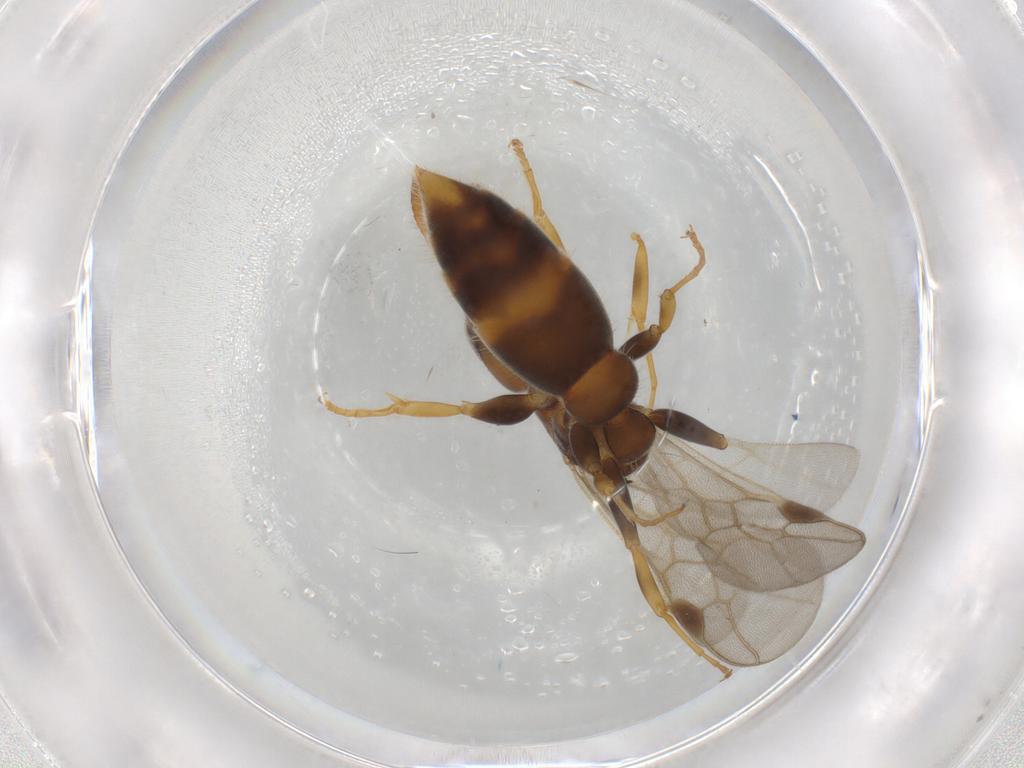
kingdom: Animalia
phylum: Arthropoda
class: Insecta
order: Hymenoptera
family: Formicidae
